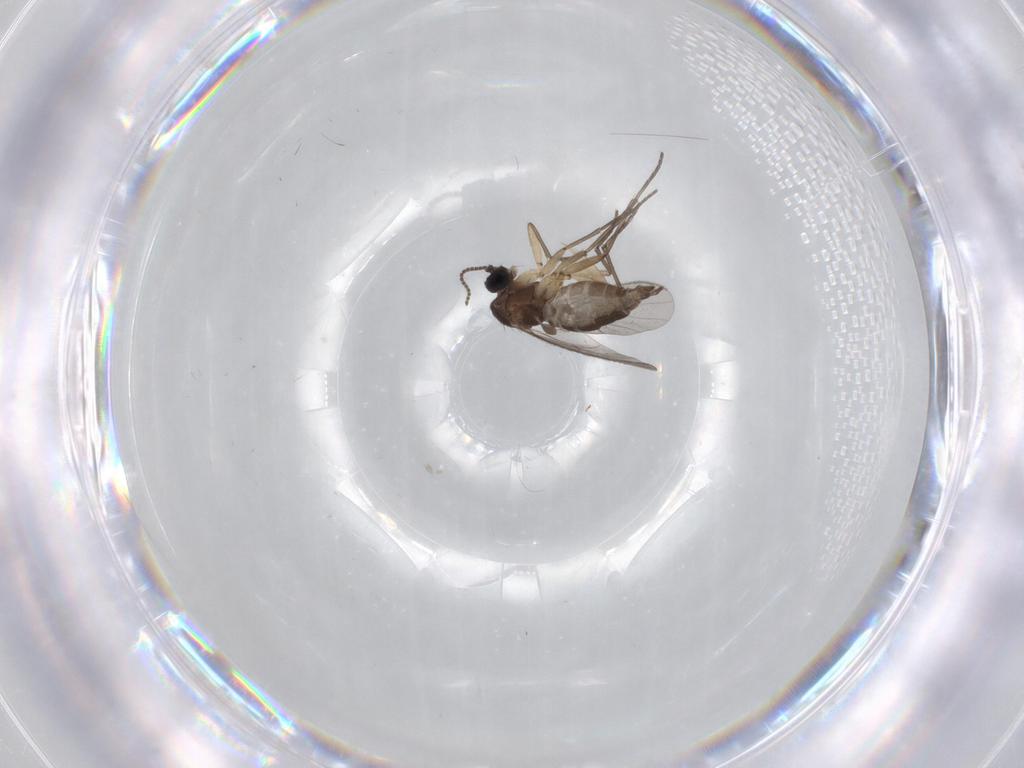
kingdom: Animalia
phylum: Arthropoda
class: Insecta
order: Diptera
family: Sciaridae
